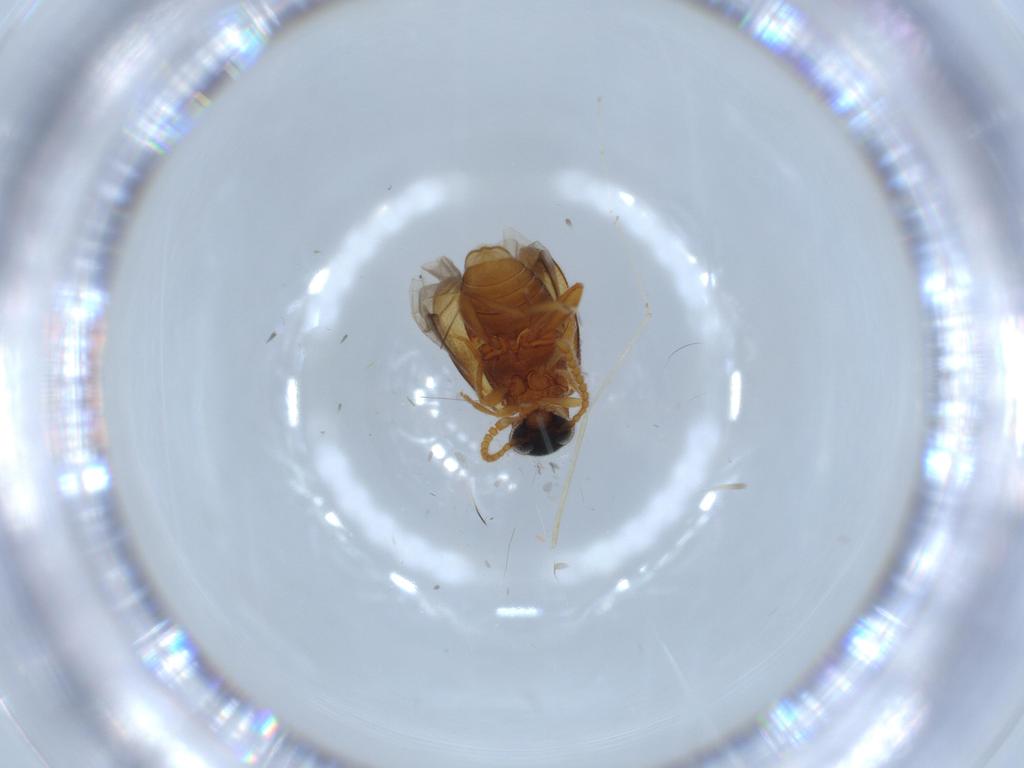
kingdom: Animalia
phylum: Arthropoda
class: Insecta
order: Coleoptera
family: Aderidae
